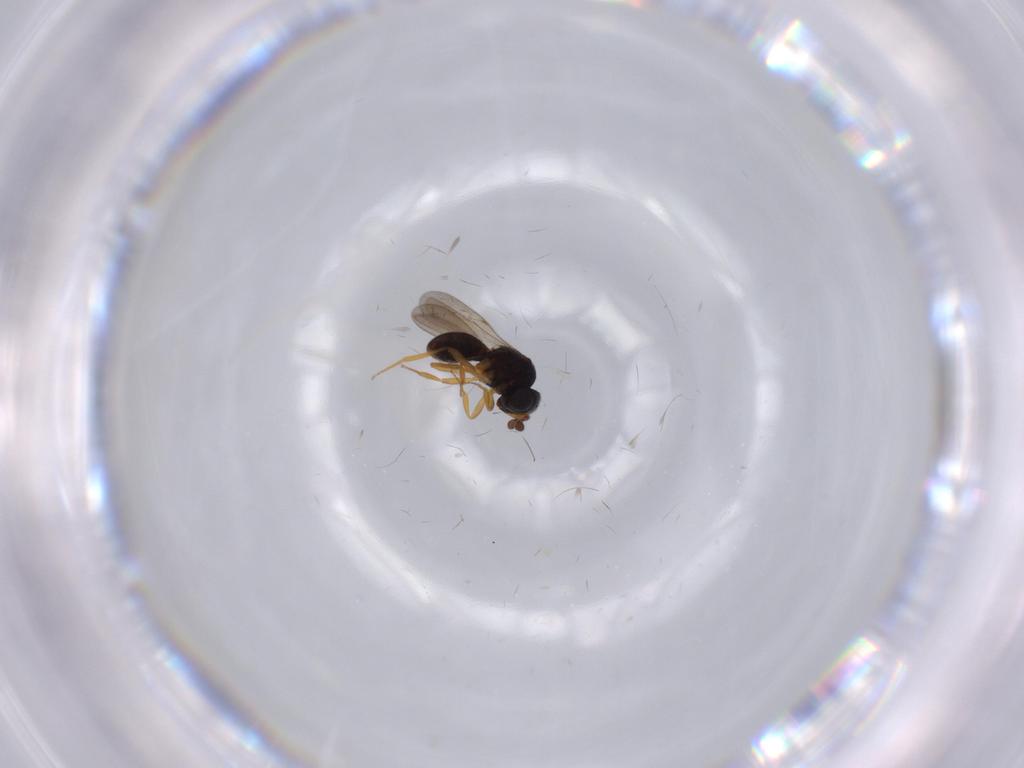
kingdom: Animalia
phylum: Arthropoda
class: Insecta
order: Hymenoptera
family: Scelionidae
